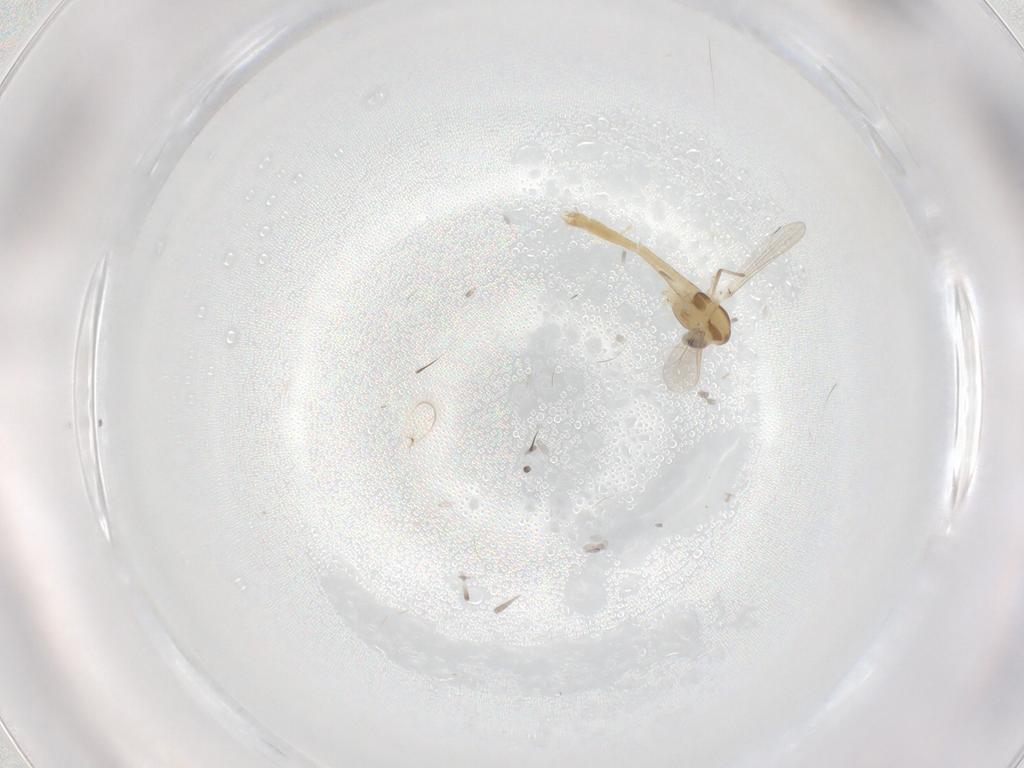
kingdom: Animalia
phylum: Arthropoda
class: Insecta
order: Diptera
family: Chironomidae
